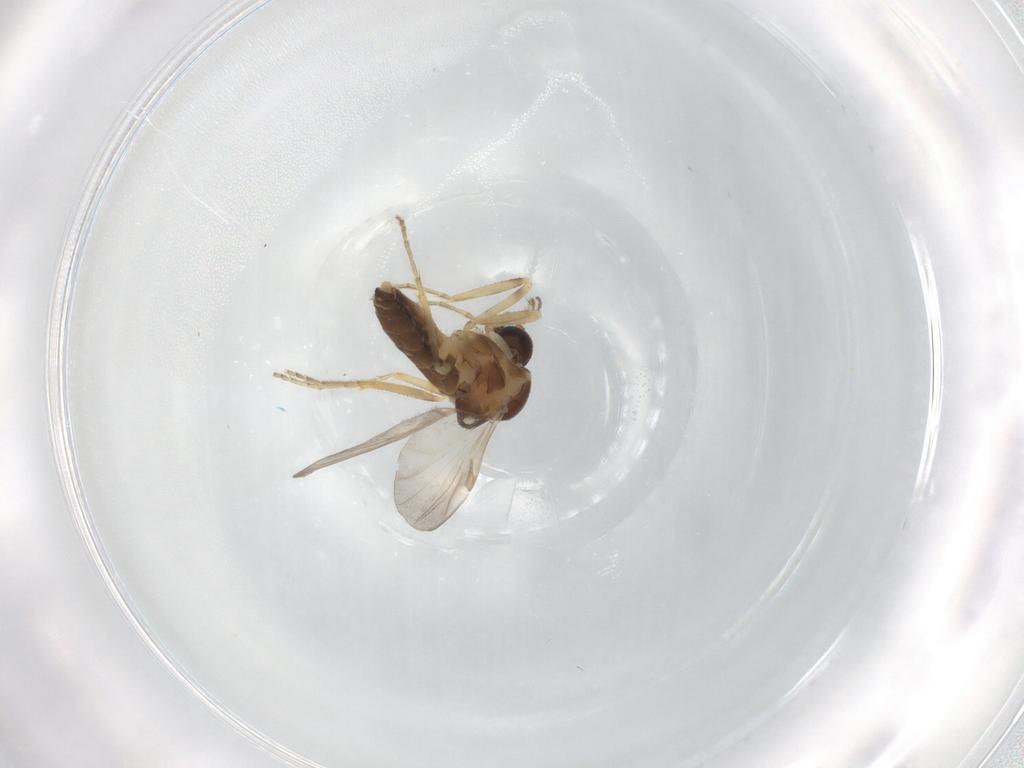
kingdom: Animalia
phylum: Arthropoda
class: Insecta
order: Diptera
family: Ceratopogonidae
